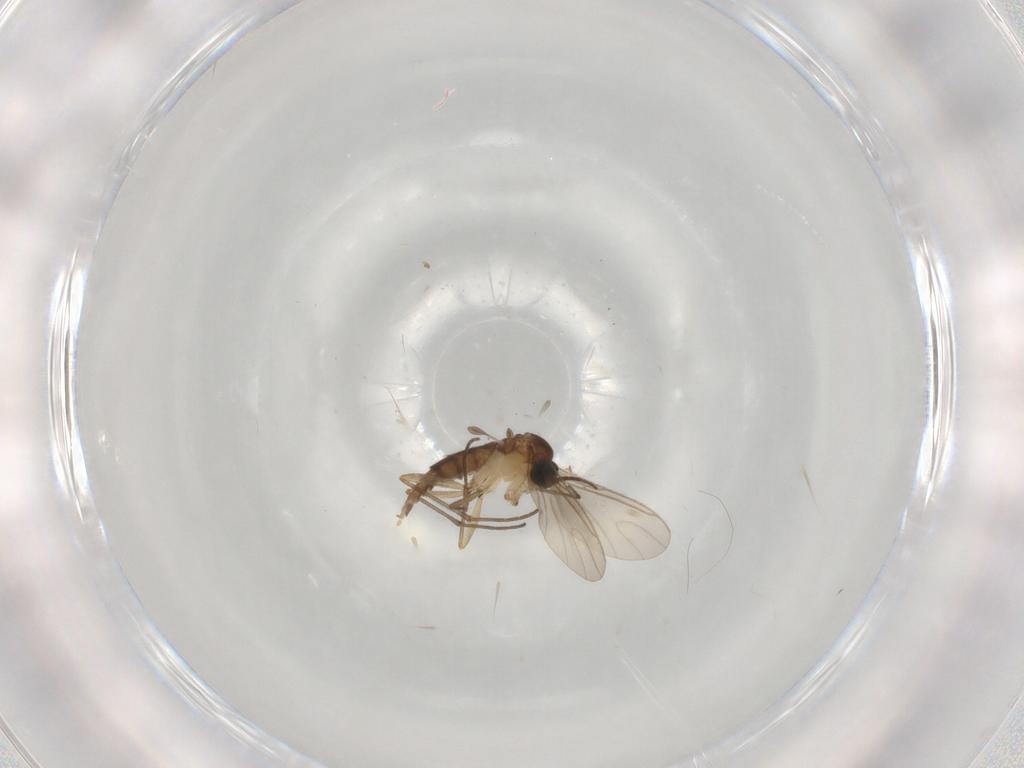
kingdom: Animalia
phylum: Arthropoda
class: Insecta
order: Diptera
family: Sciaridae
